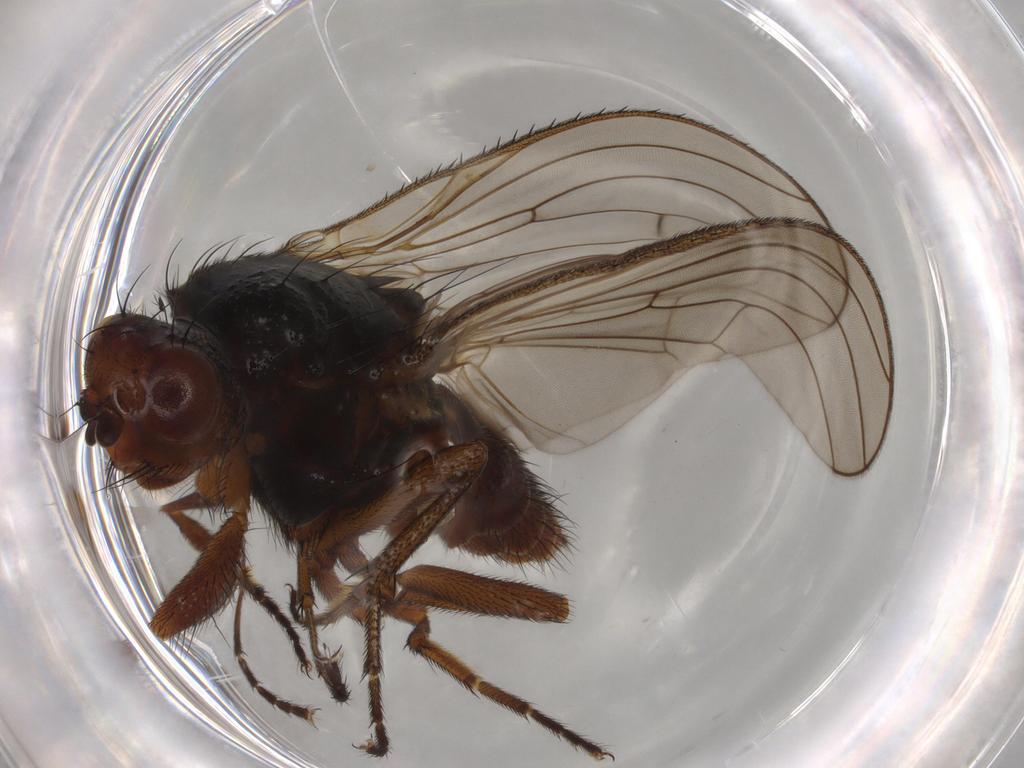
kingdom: Animalia
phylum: Arthropoda
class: Insecta
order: Diptera
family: Heleomyzidae
